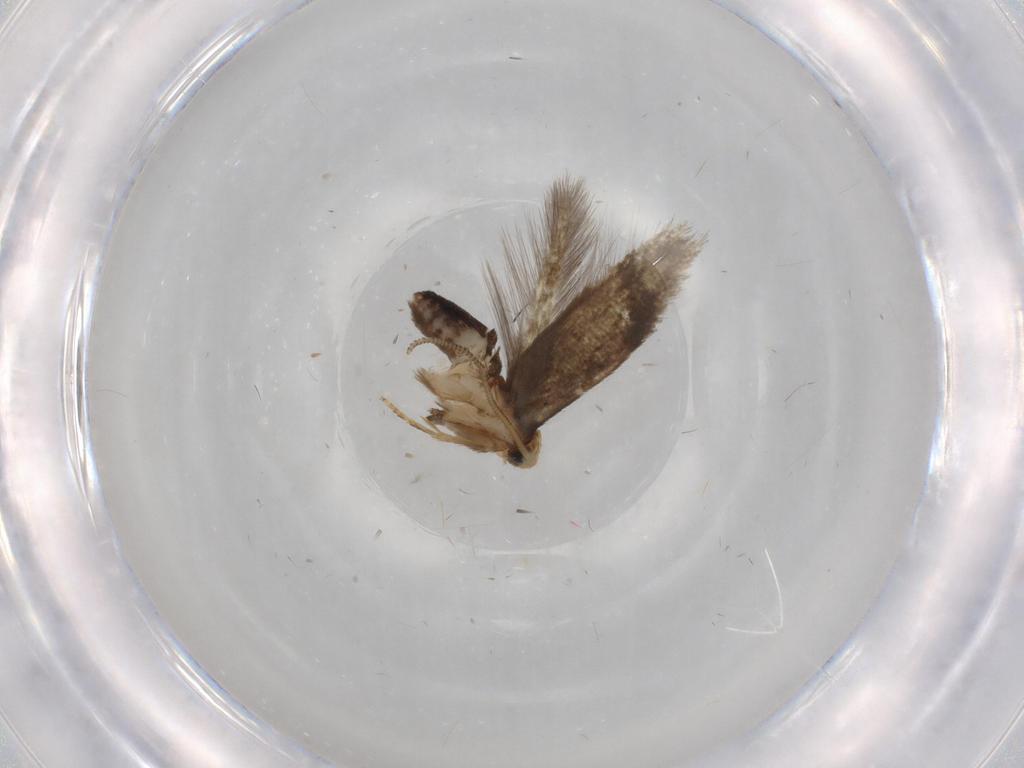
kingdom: Animalia
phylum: Arthropoda
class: Insecta
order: Lepidoptera
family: Nepticulidae
